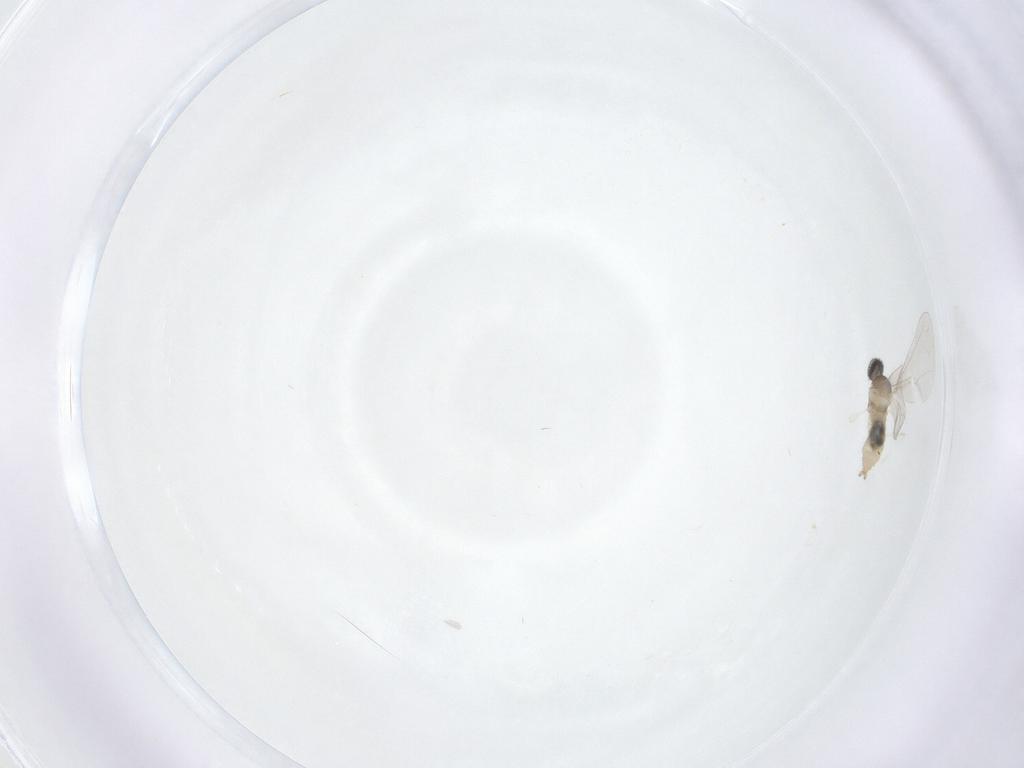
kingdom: Animalia
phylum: Arthropoda
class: Insecta
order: Diptera
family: Cecidomyiidae
